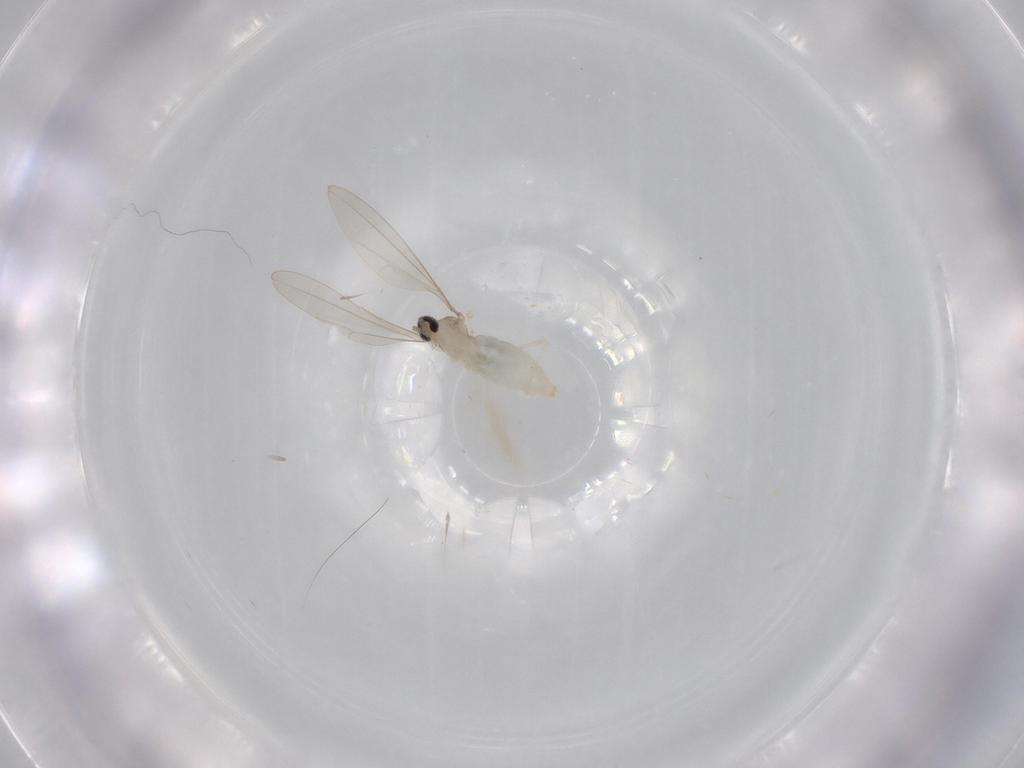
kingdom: Animalia
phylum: Arthropoda
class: Insecta
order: Diptera
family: Cecidomyiidae
